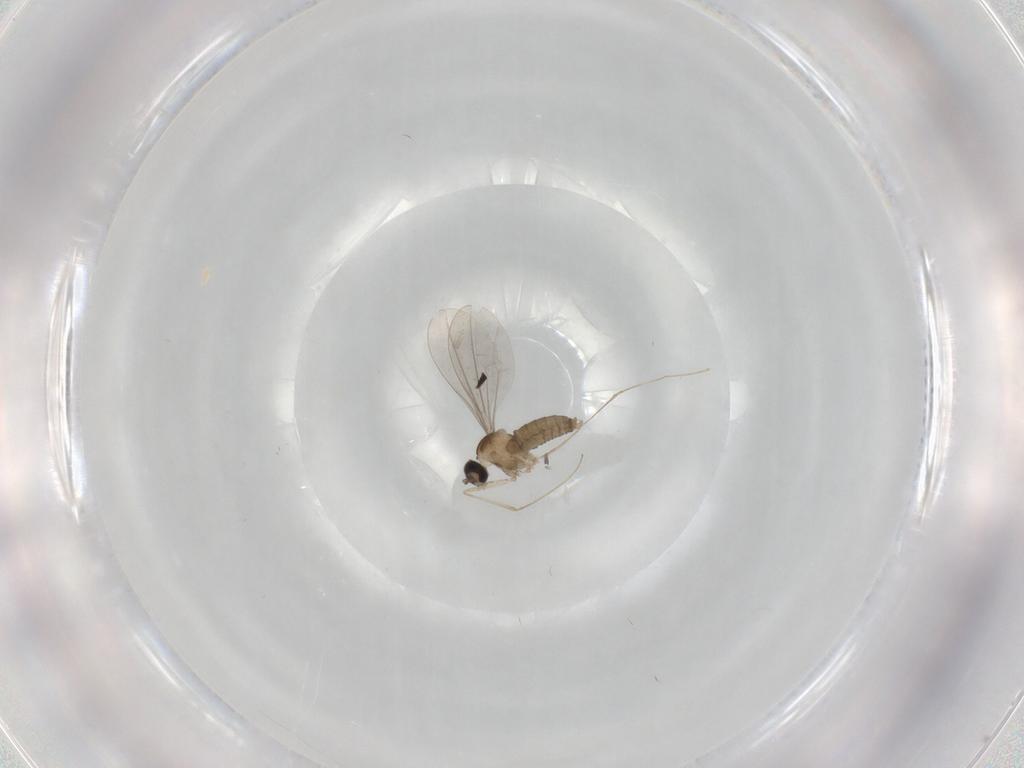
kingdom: Animalia
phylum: Arthropoda
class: Insecta
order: Diptera
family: Cecidomyiidae
